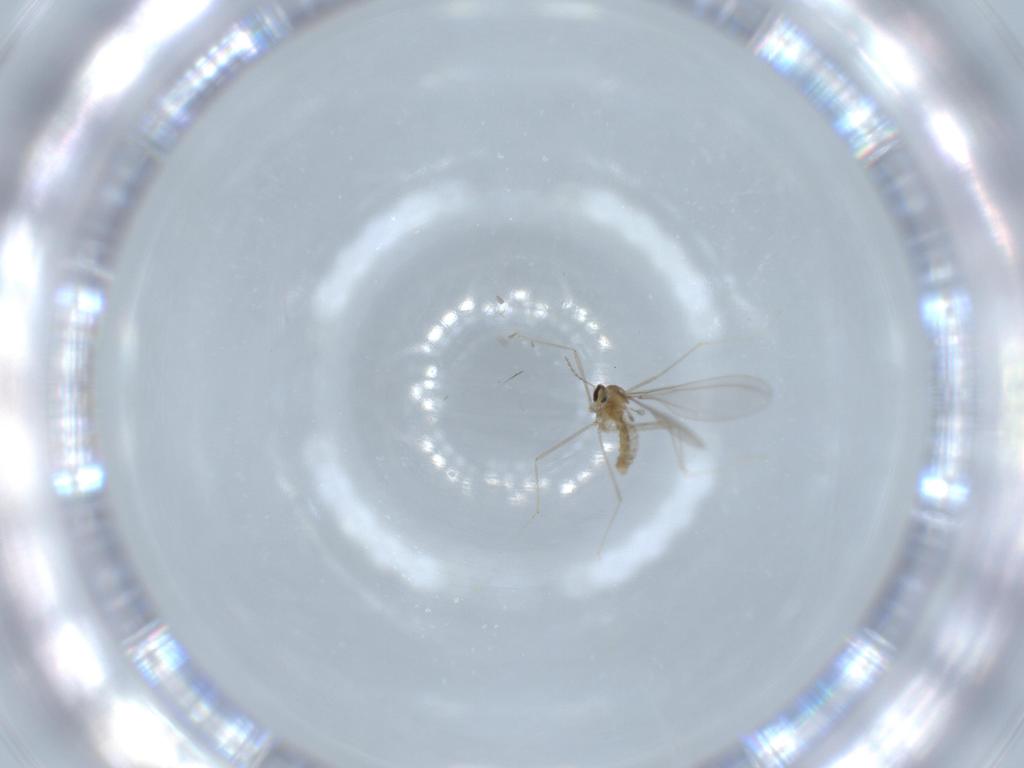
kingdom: Animalia
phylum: Arthropoda
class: Insecta
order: Diptera
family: Cecidomyiidae
